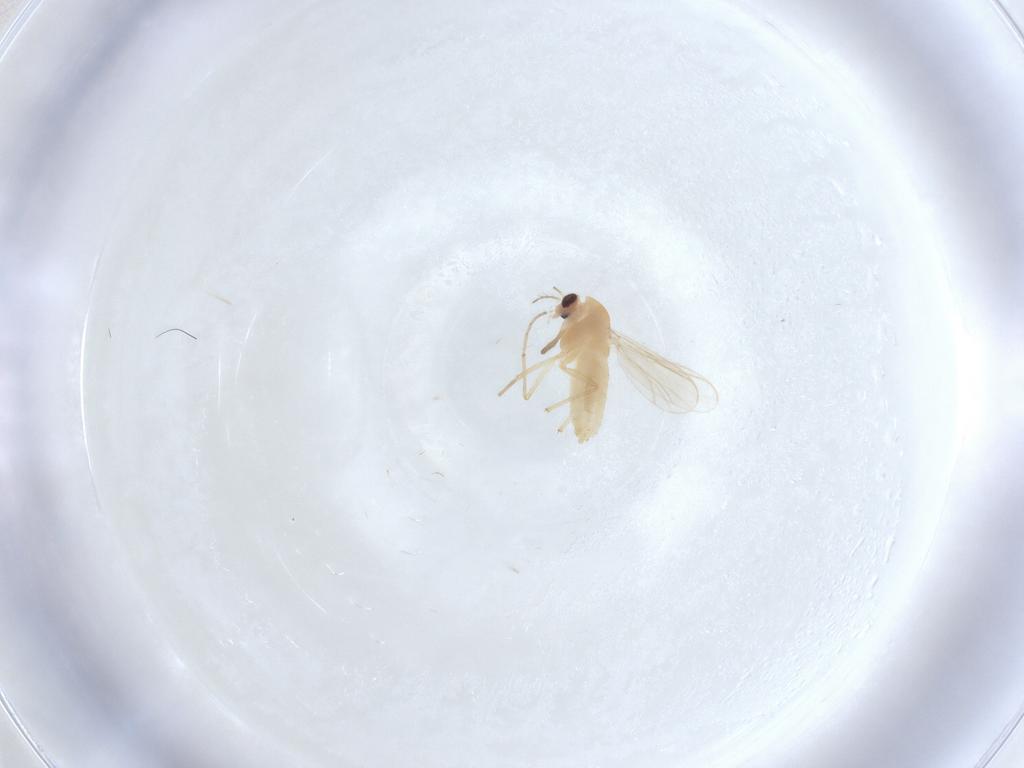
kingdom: Animalia
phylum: Arthropoda
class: Insecta
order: Diptera
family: Chironomidae
